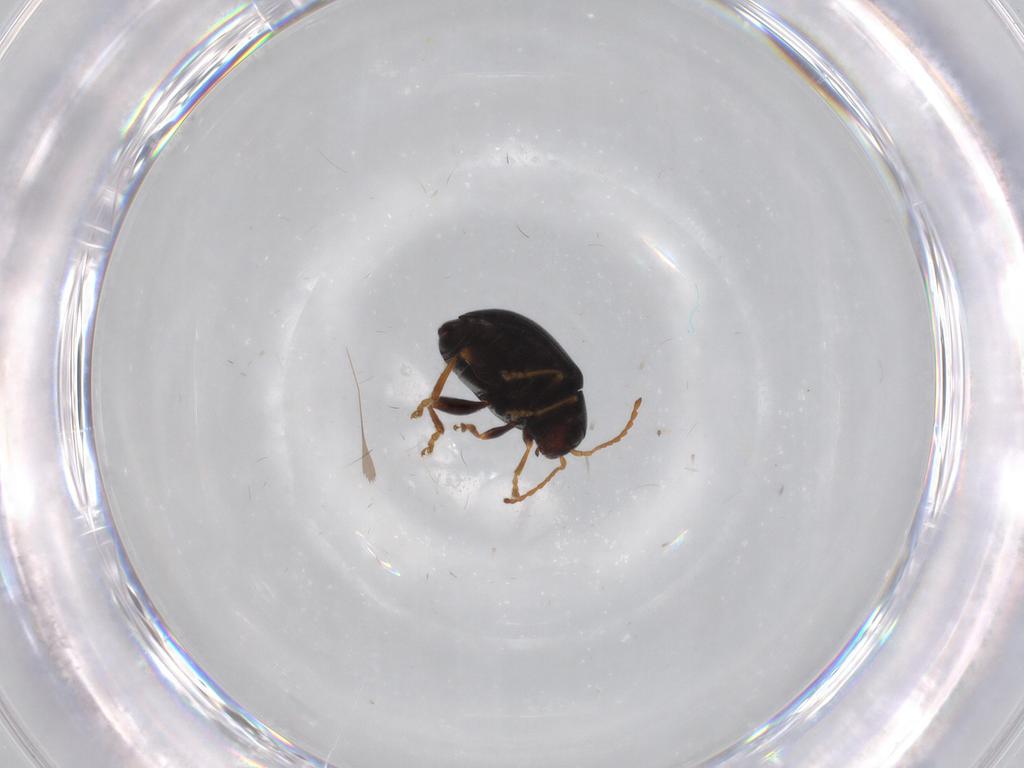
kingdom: Animalia
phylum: Arthropoda
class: Insecta
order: Coleoptera
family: Chrysomelidae
